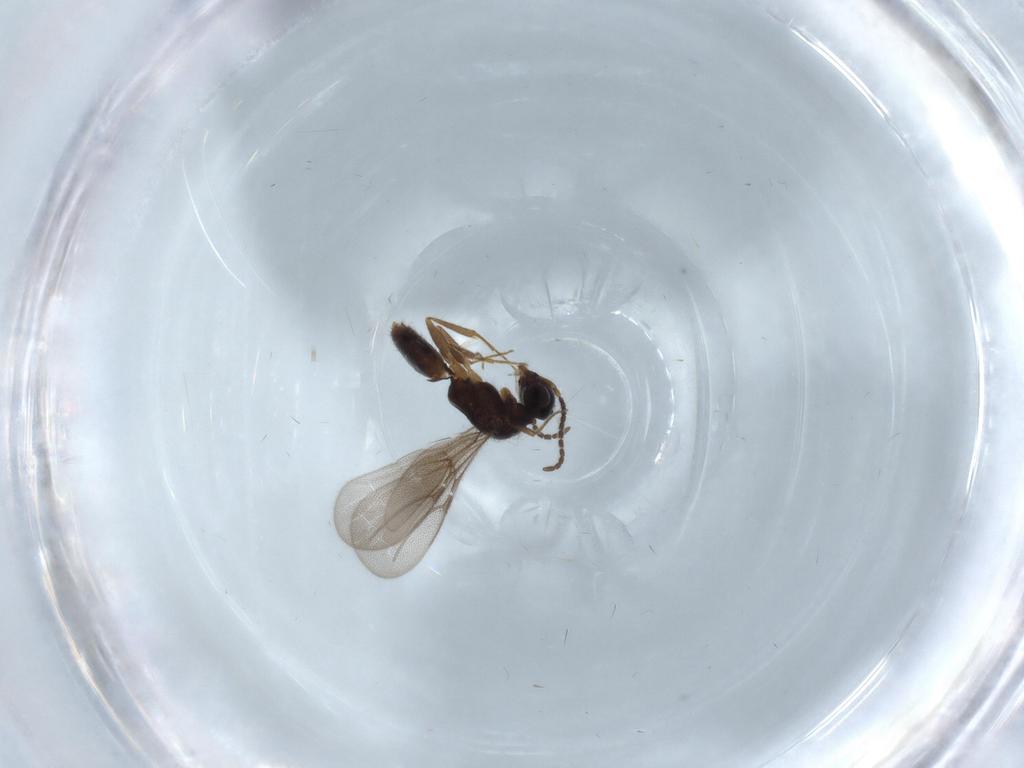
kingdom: Animalia
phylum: Arthropoda
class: Insecta
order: Hymenoptera
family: Bethylidae
